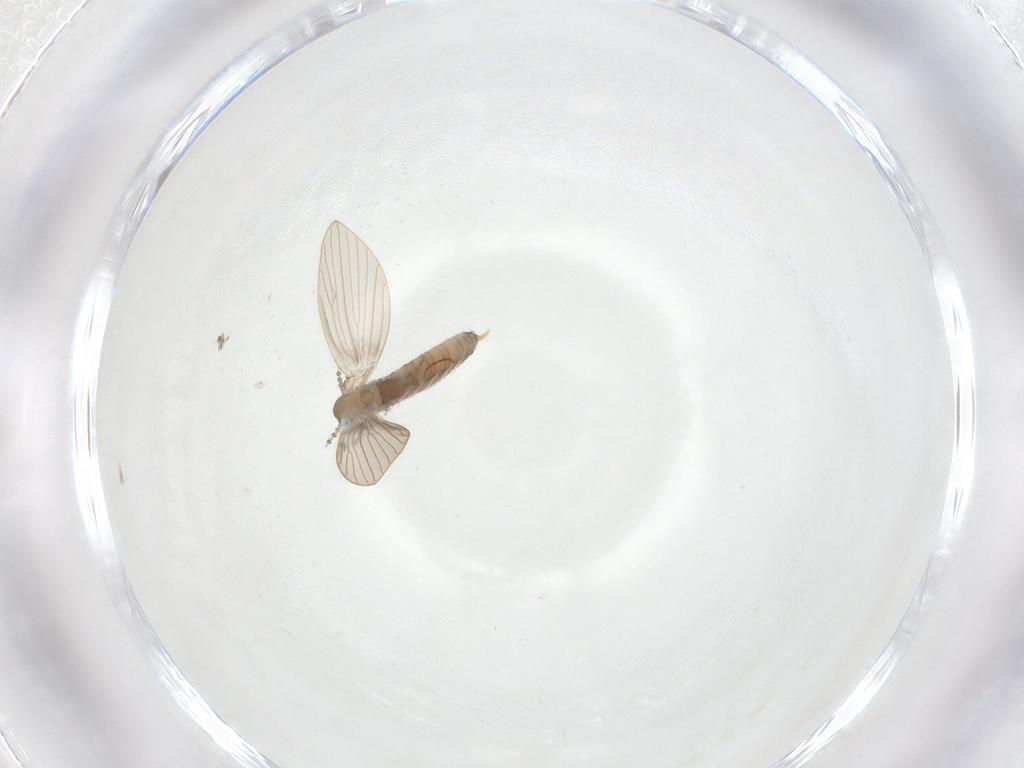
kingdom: Animalia
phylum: Arthropoda
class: Insecta
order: Diptera
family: Psychodidae
